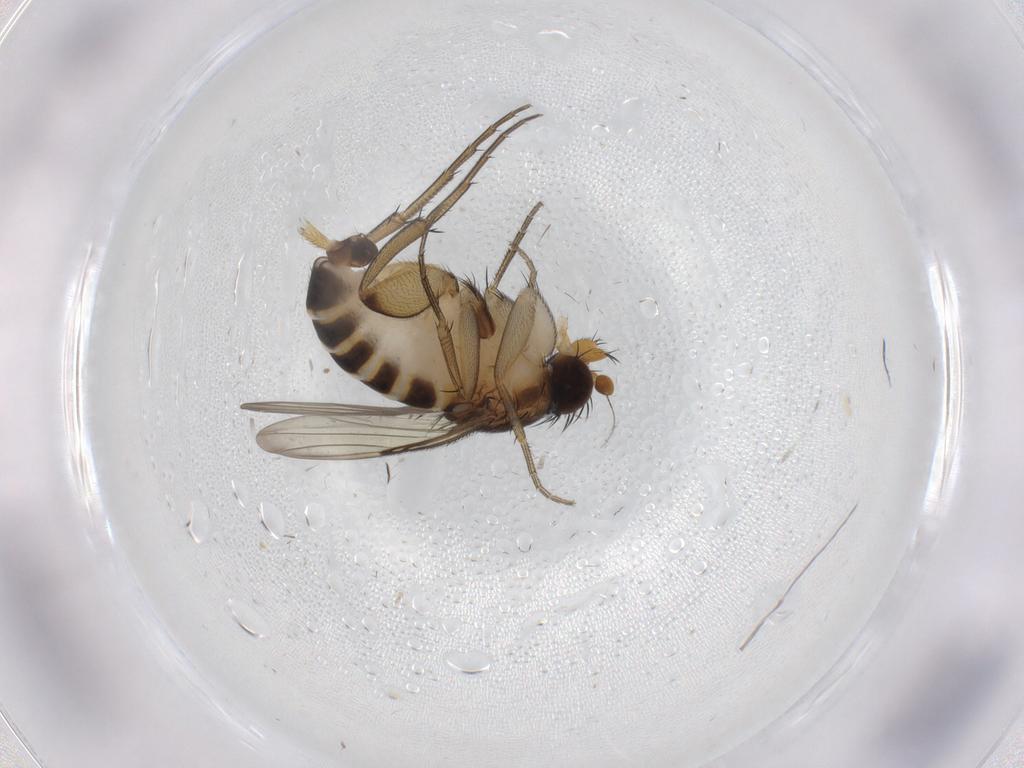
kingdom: Animalia
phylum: Arthropoda
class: Insecta
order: Diptera
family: Phoridae
